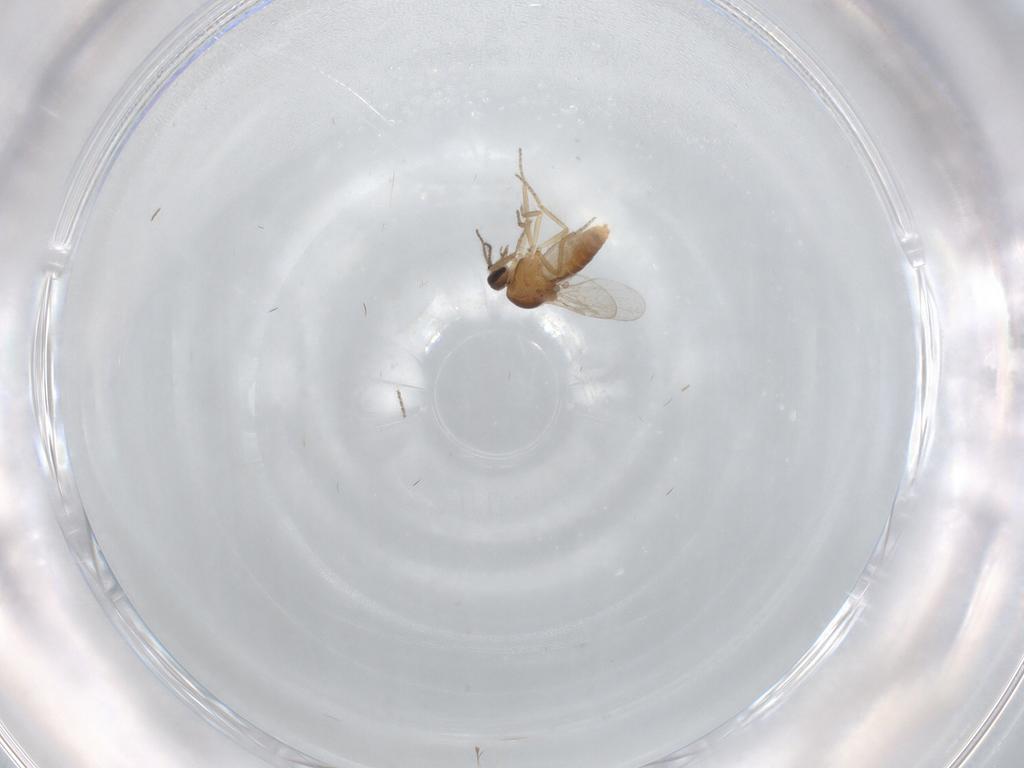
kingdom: Animalia
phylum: Arthropoda
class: Insecta
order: Diptera
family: Ceratopogonidae
